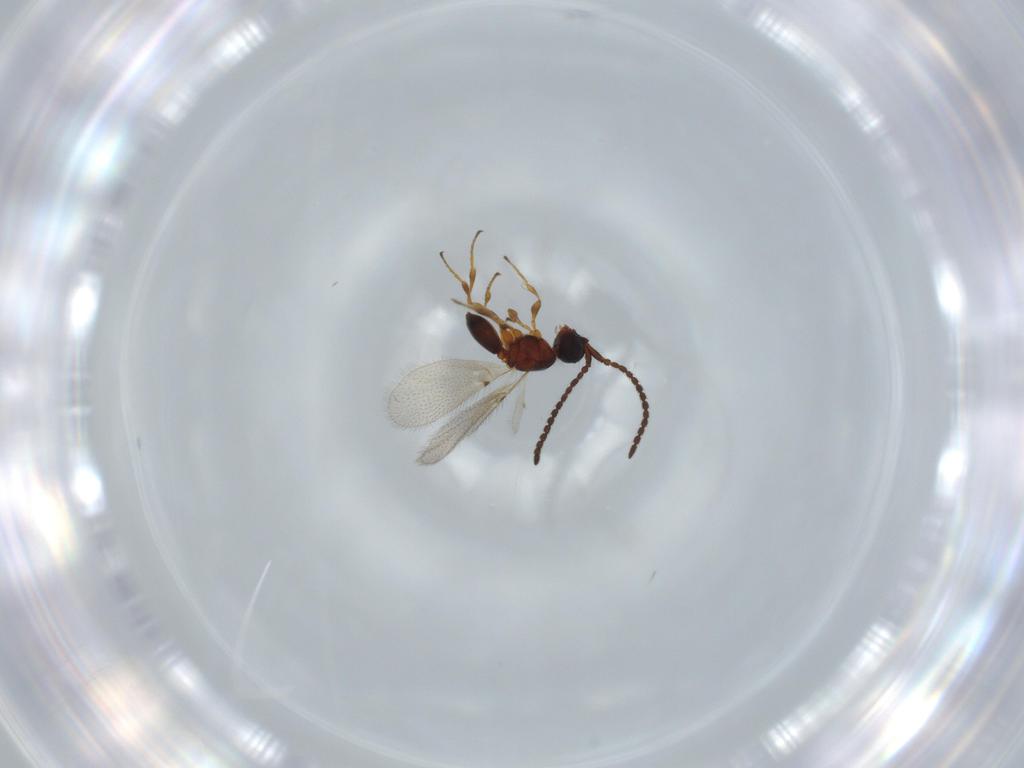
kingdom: Animalia
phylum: Arthropoda
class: Insecta
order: Hymenoptera
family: Diapriidae
